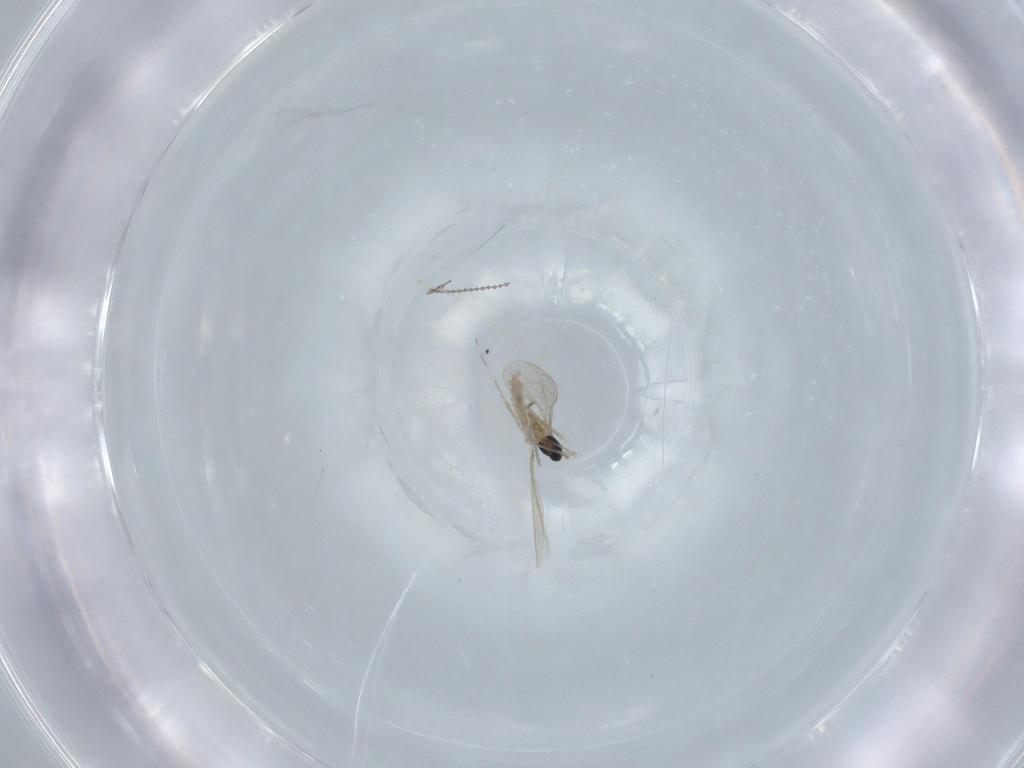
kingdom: Animalia
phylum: Arthropoda
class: Insecta
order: Diptera
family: Cecidomyiidae
